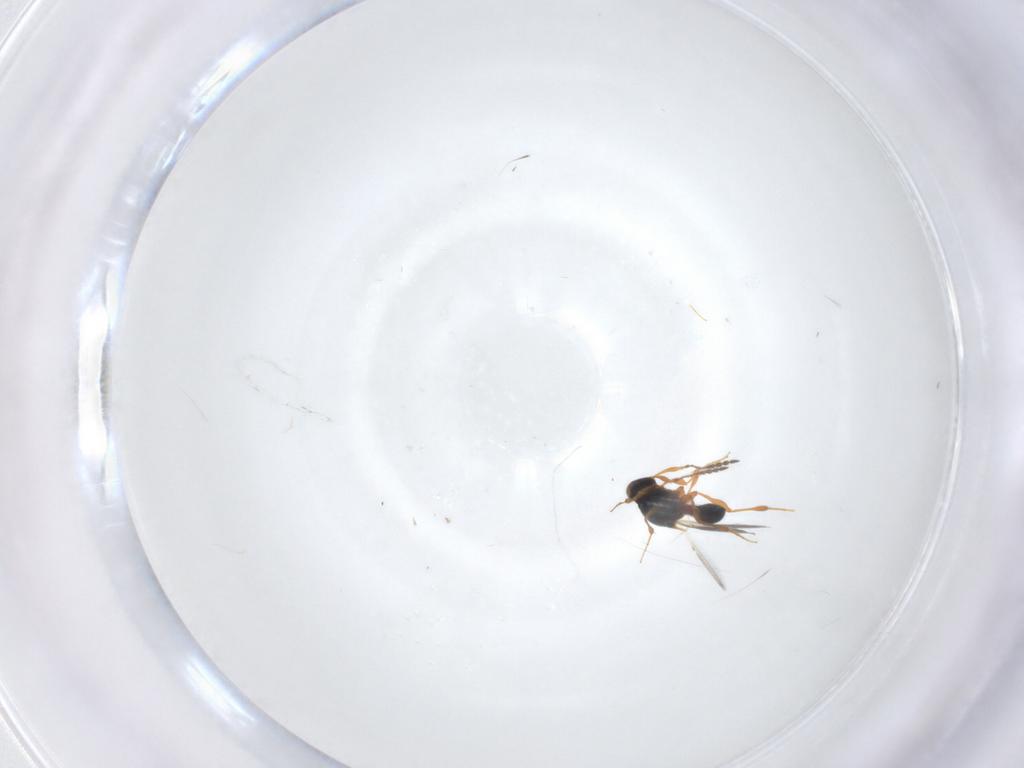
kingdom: Animalia
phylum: Arthropoda
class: Insecta
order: Hymenoptera
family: Platygastridae
